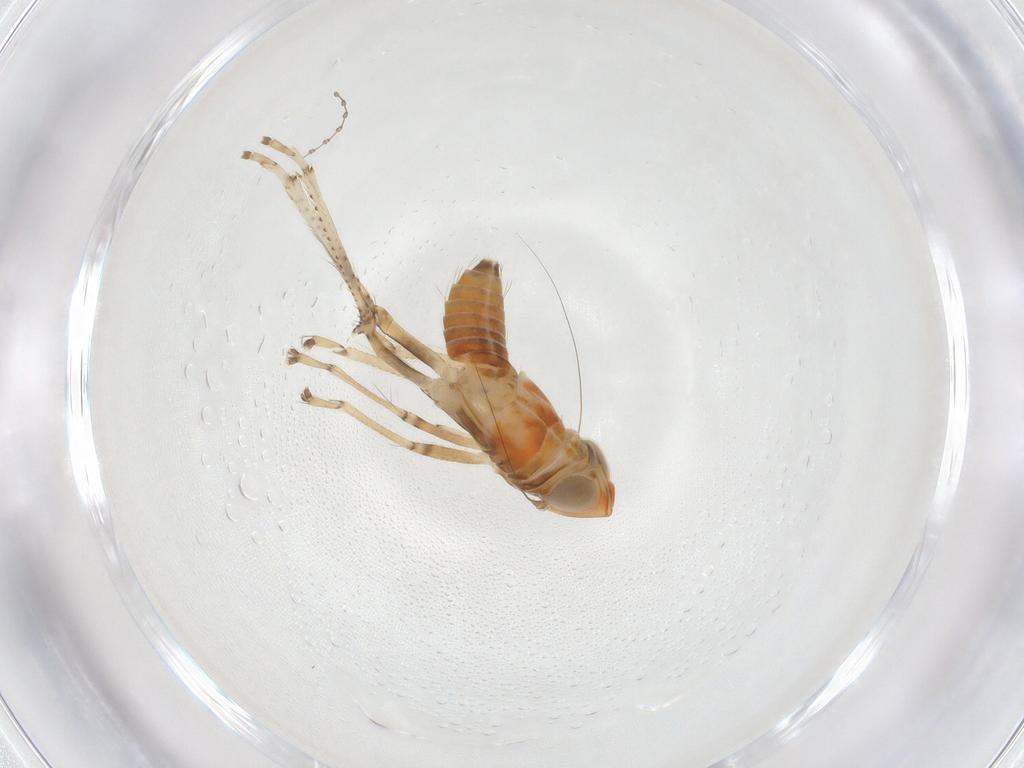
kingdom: Animalia
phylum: Arthropoda
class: Insecta
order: Hemiptera
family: Cicadellidae
